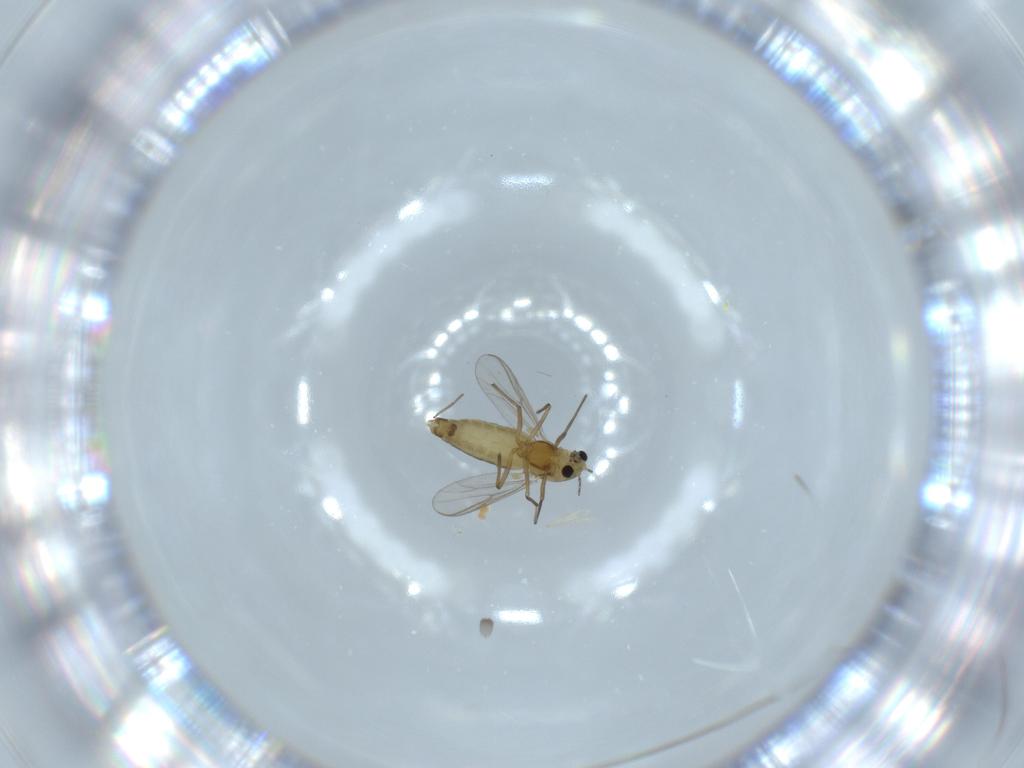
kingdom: Animalia
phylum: Arthropoda
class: Insecta
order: Diptera
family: Chironomidae
